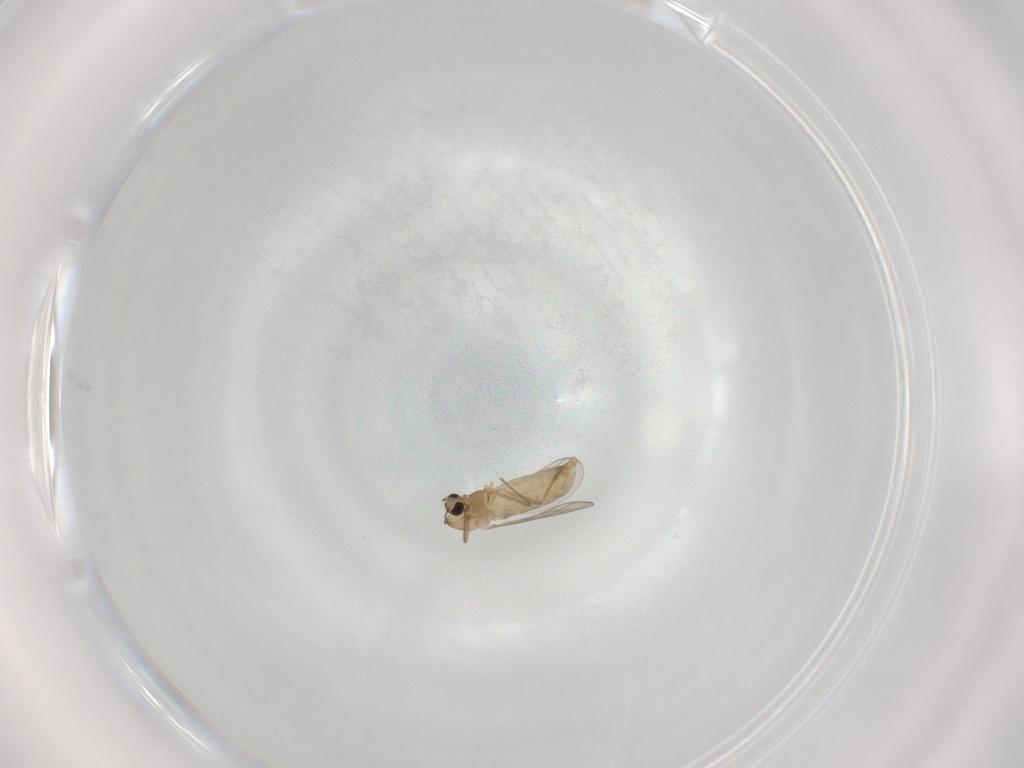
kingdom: Animalia
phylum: Arthropoda
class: Insecta
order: Diptera
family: Chironomidae
